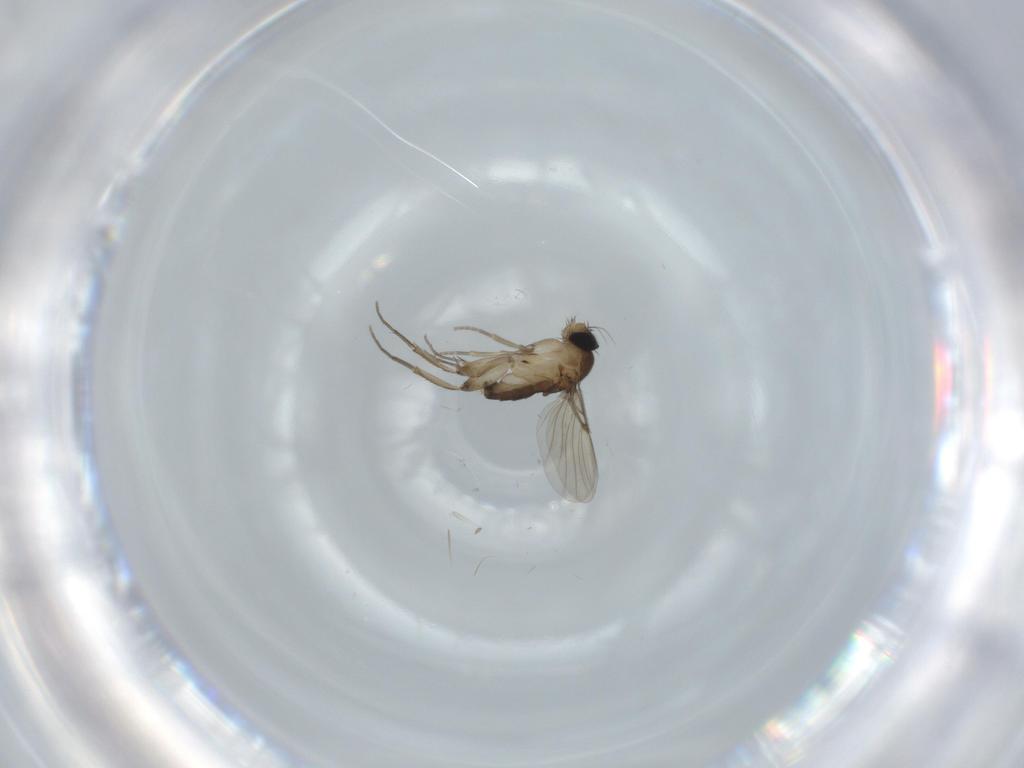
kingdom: Animalia
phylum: Arthropoda
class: Insecta
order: Diptera
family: Phoridae
